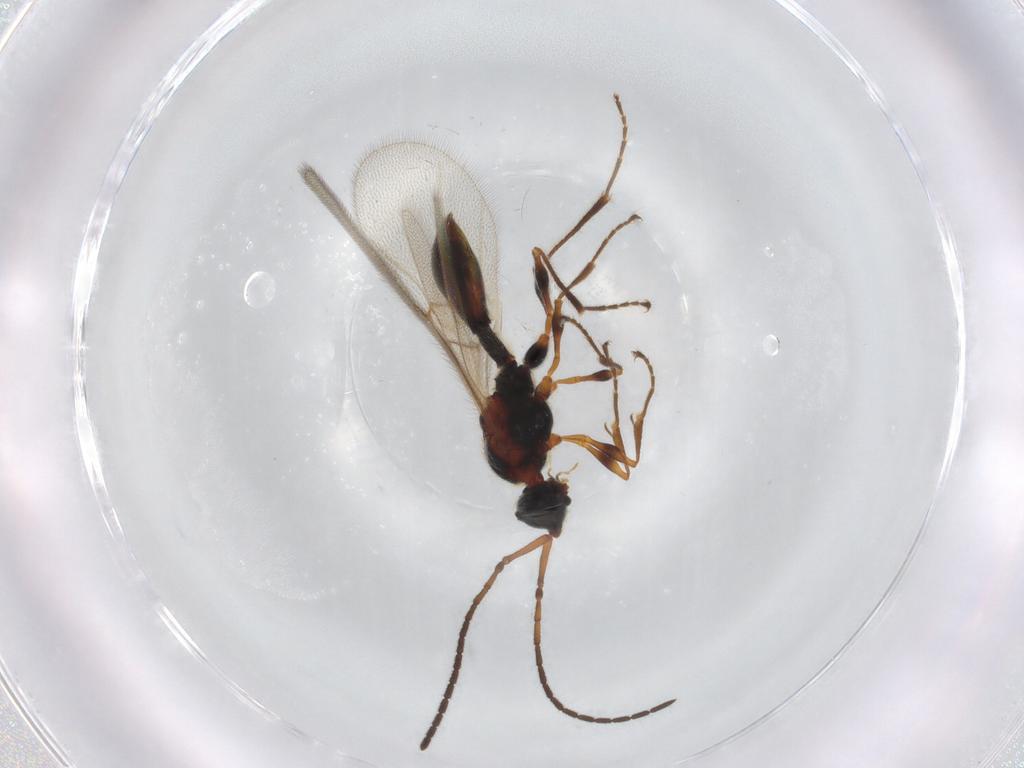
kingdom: Animalia
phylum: Arthropoda
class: Insecta
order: Hymenoptera
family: Diapriidae
